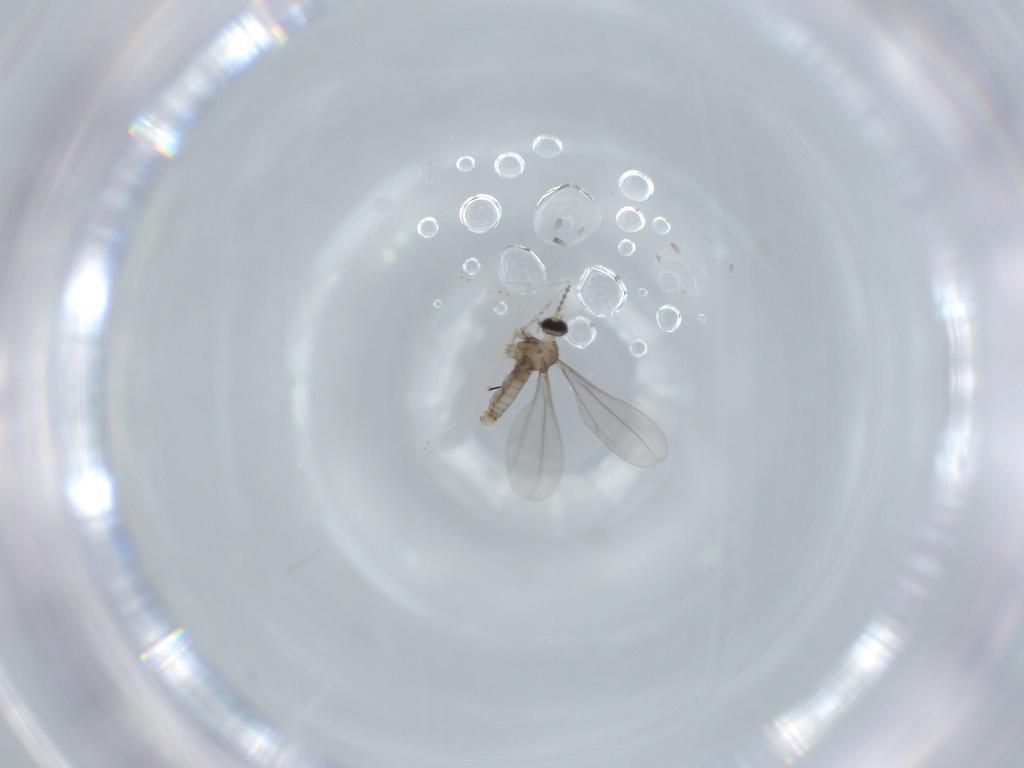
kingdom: Animalia
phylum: Arthropoda
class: Insecta
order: Diptera
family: Cecidomyiidae
